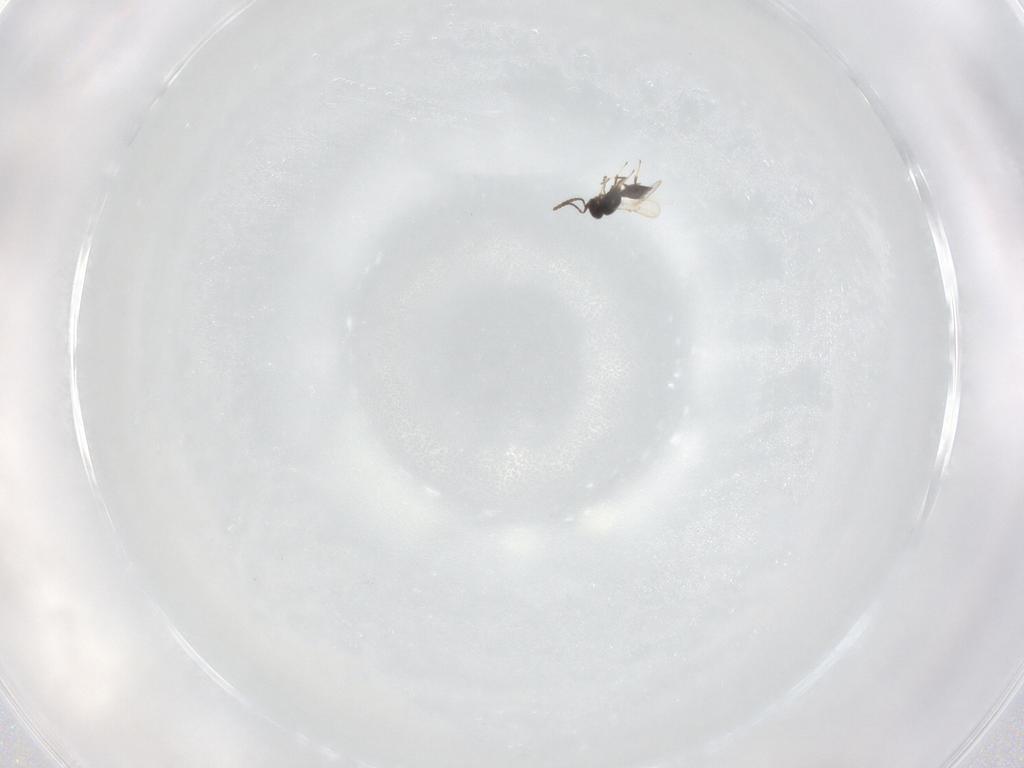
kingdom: Animalia
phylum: Arthropoda
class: Insecta
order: Hymenoptera
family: Scelionidae
